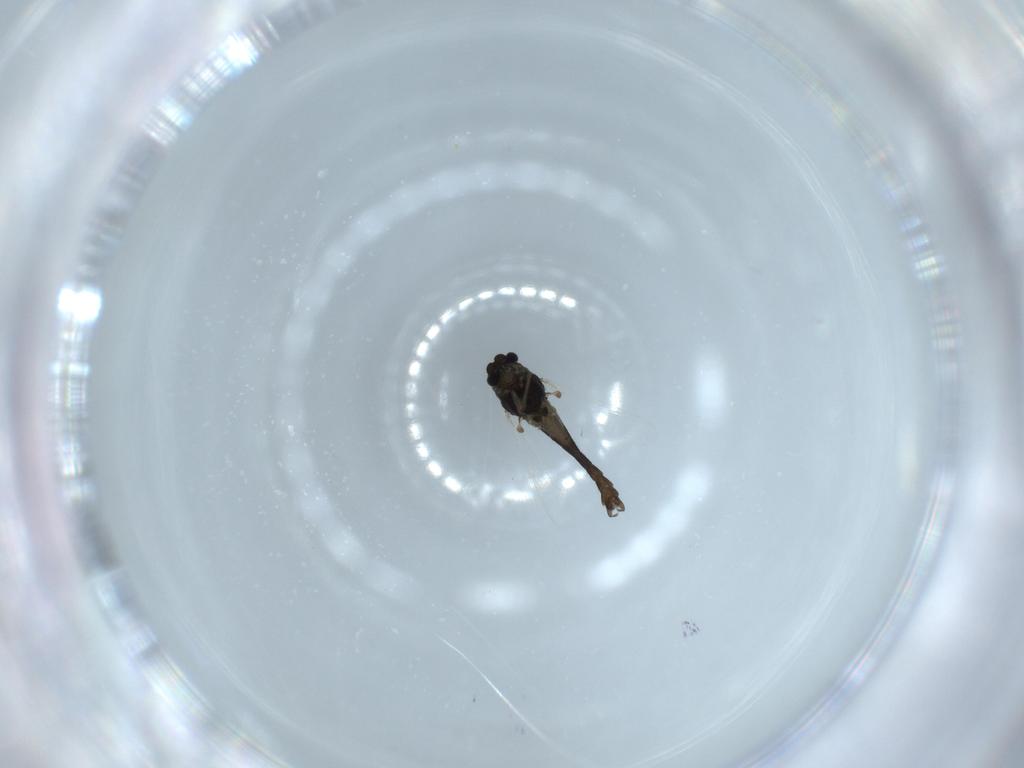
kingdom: Animalia
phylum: Arthropoda
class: Insecta
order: Diptera
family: Chironomidae
